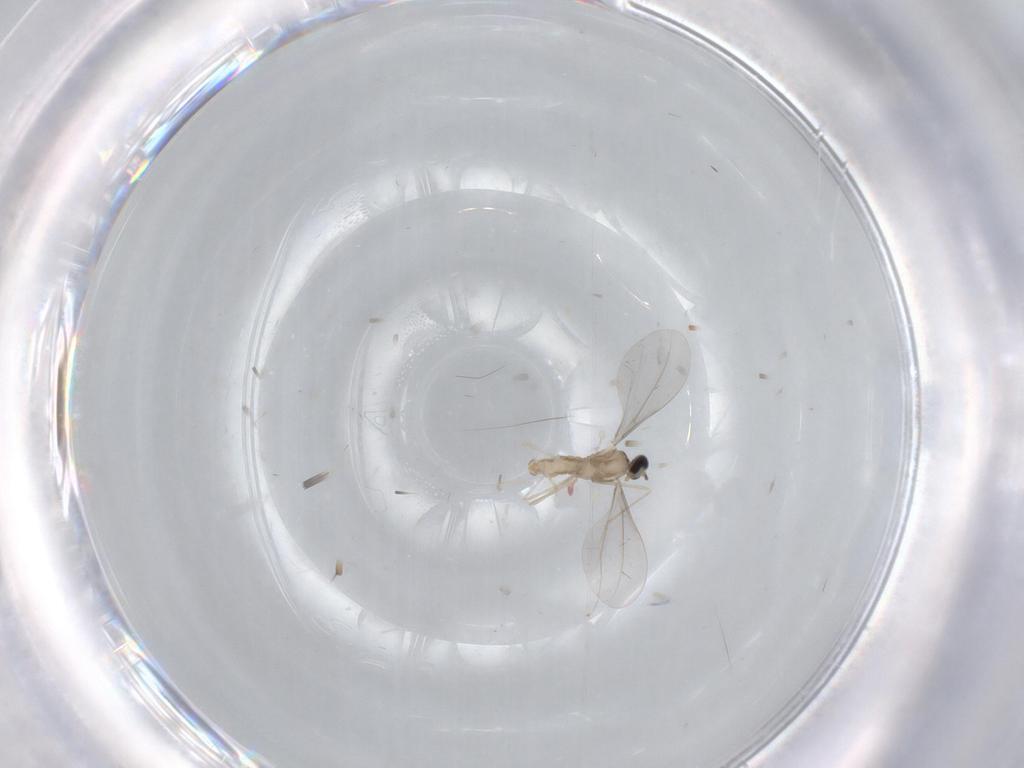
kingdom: Animalia
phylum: Arthropoda
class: Insecta
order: Diptera
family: Cecidomyiidae
